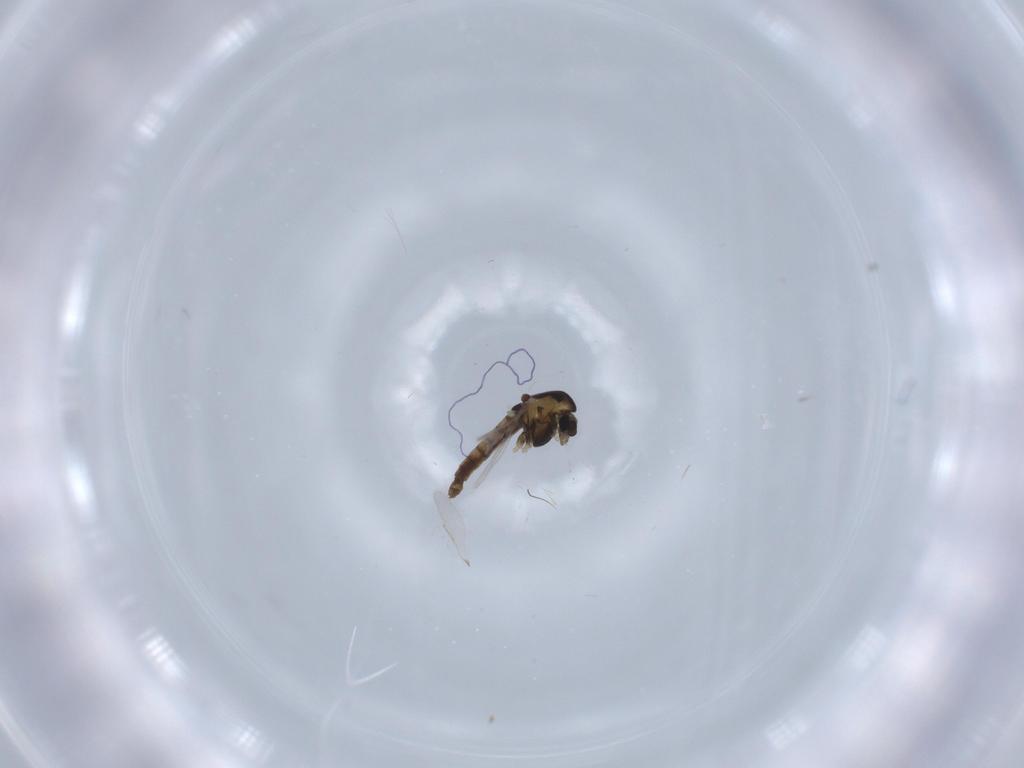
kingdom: Animalia
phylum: Arthropoda
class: Insecta
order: Diptera
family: Chironomidae
